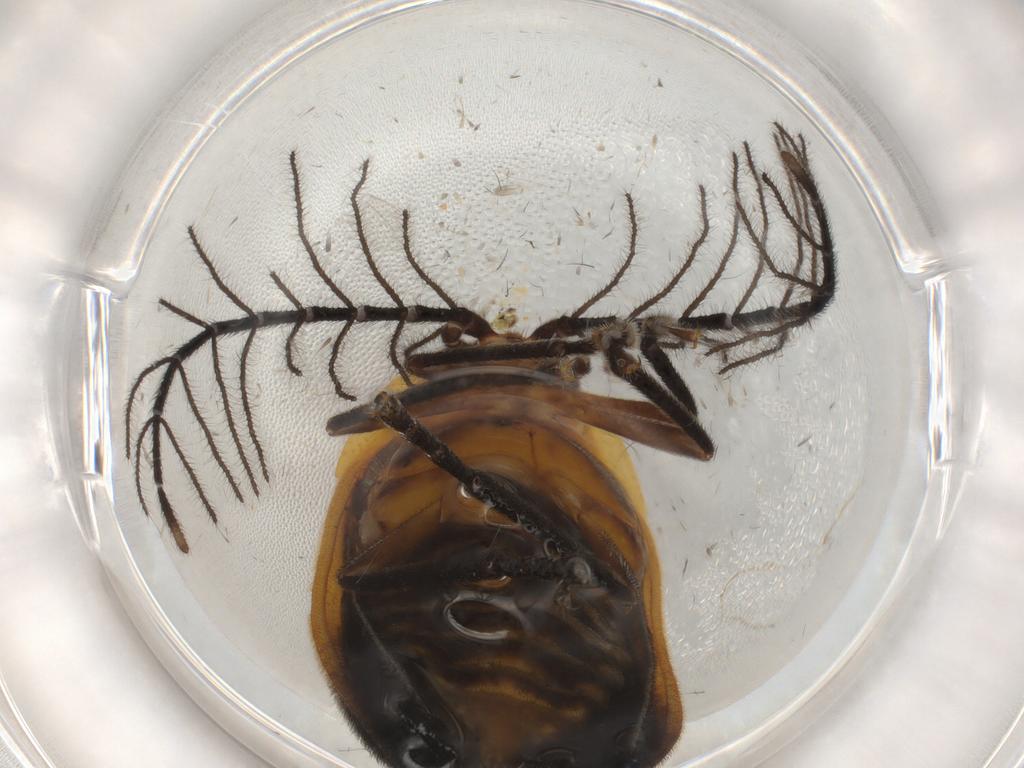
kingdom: Animalia
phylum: Arthropoda
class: Insecta
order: Coleoptera
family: Lampyridae
